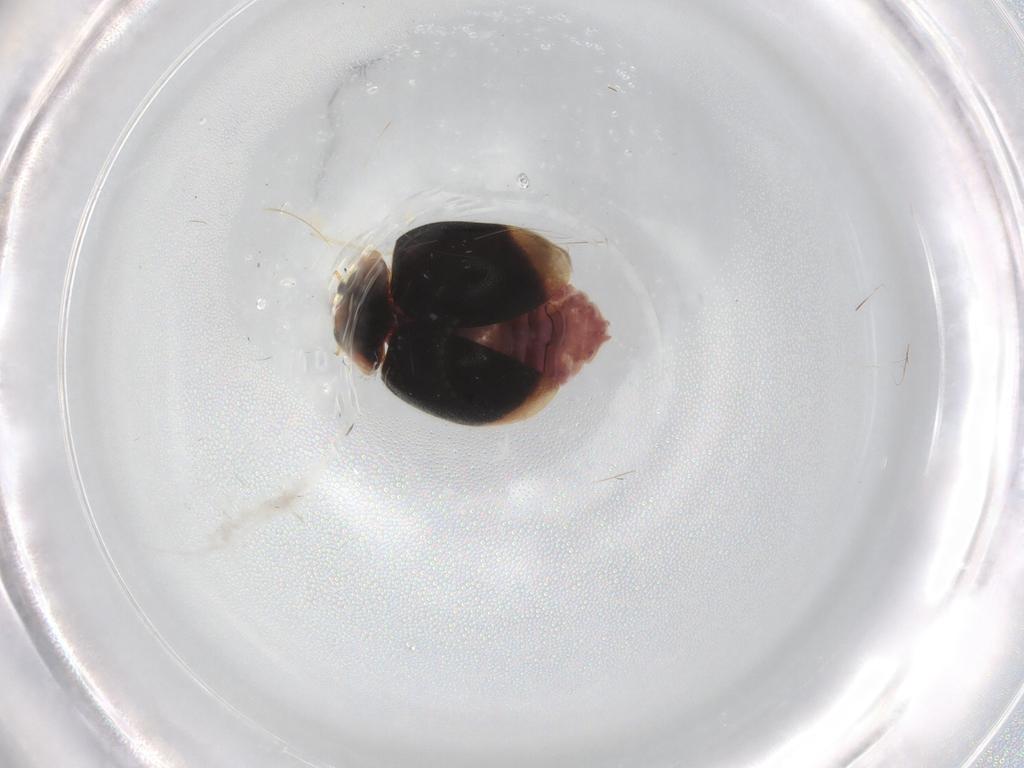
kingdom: Animalia
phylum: Arthropoda
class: Insecta
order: Coleoptera
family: Coccinellidae
